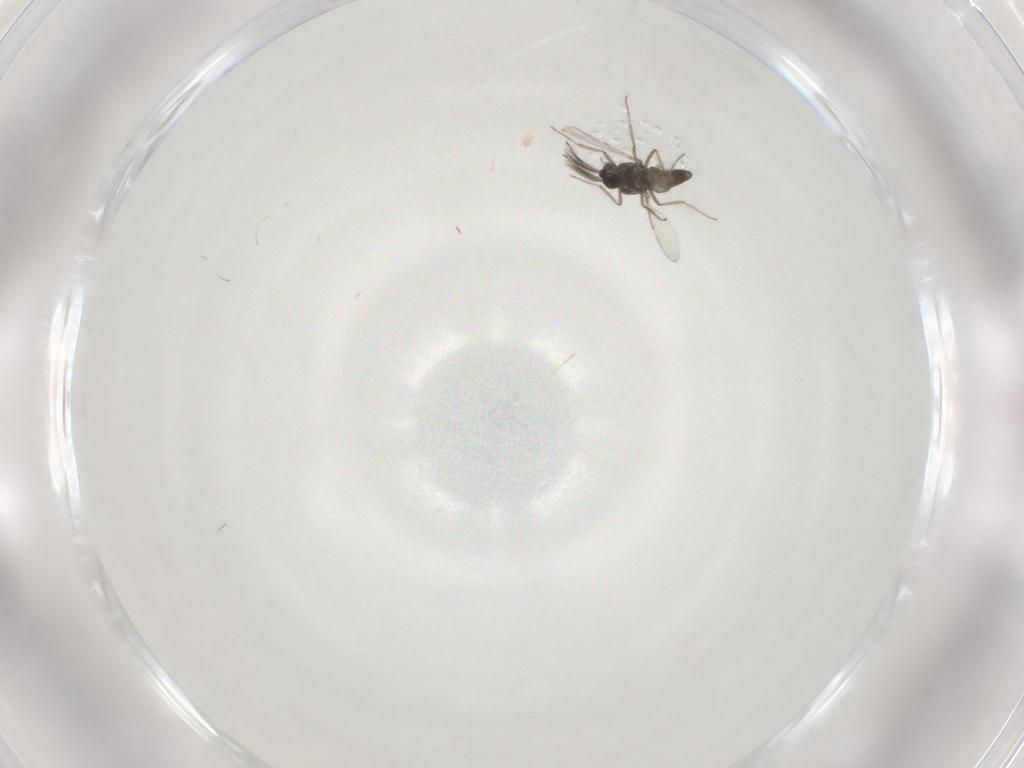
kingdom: Animalia
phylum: Arthropoda
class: Insecta
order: Diptera
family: Ceratopogonidae
